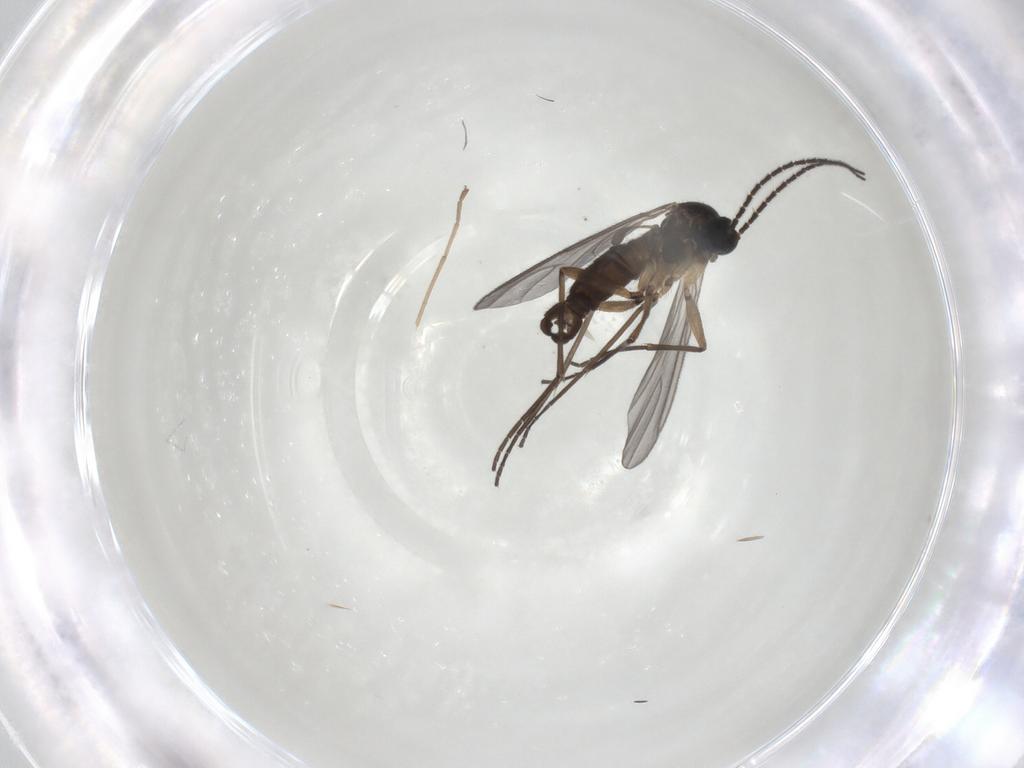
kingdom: Animalia
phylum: Arthropoda
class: Insecta
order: Diptera
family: Sciaridae
